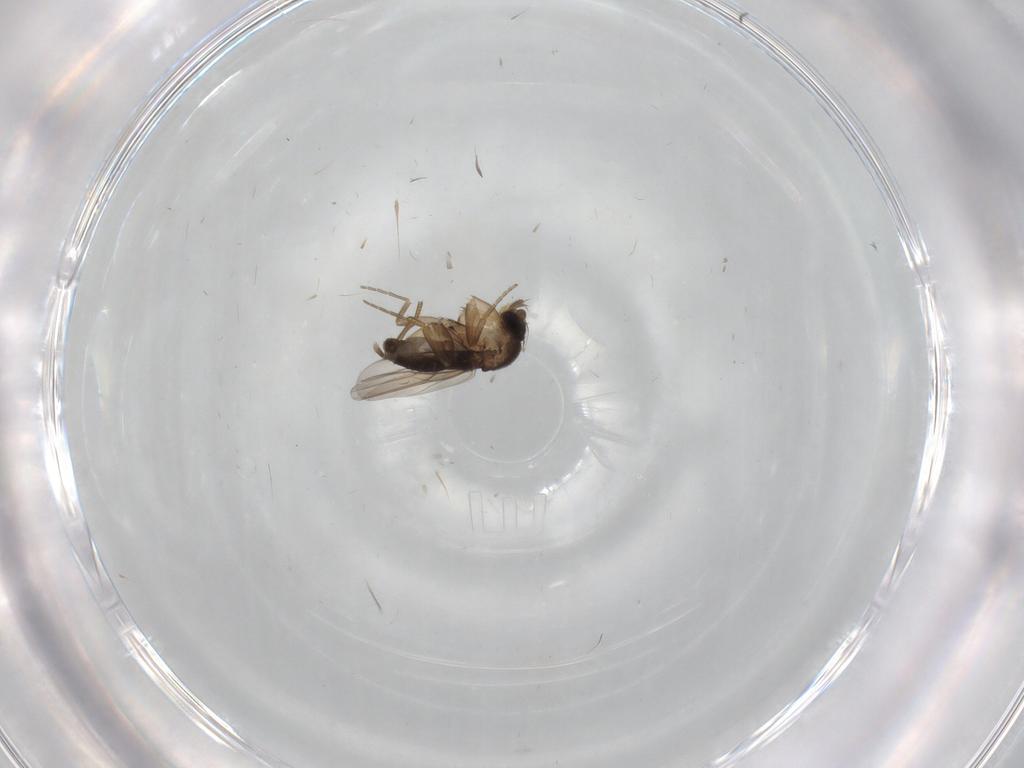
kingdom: Animalia
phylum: Arthropoda
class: Insecta
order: Diptera
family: Phoridae
